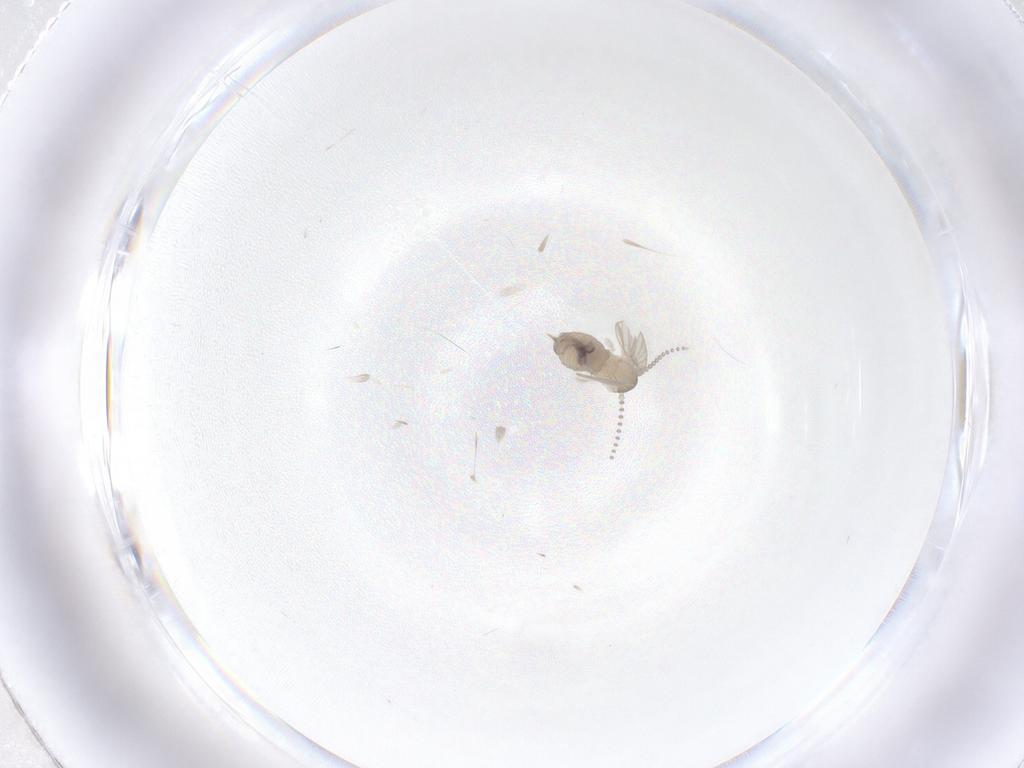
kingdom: Animalia
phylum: Arthropoda
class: Insecta
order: Diptera
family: Psychodidae
